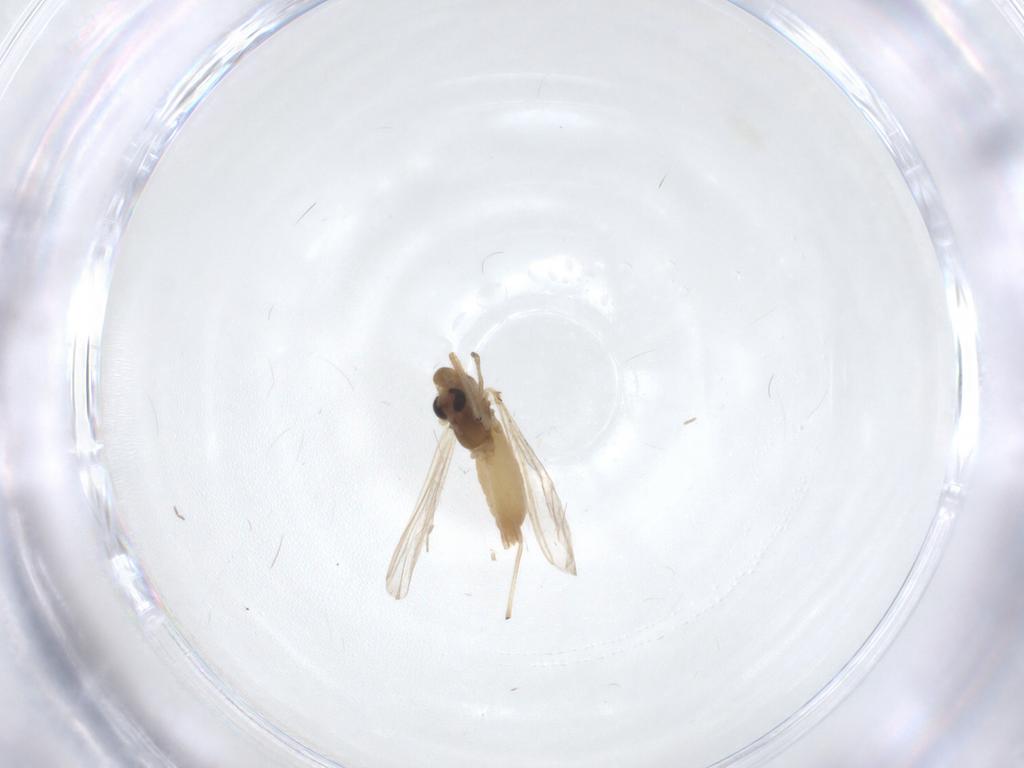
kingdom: Animalia
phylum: Arthropoda
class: Insecta
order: Diptera
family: Chironomidae
